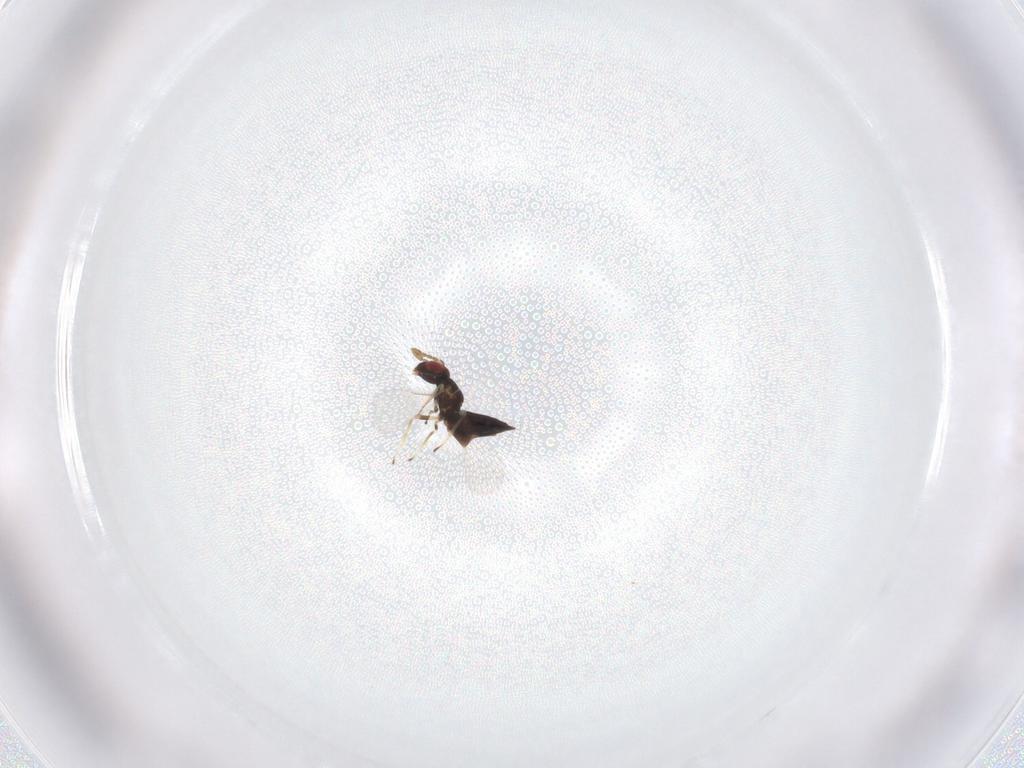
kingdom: Animalia
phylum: Arthropoda
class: Insecta
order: Hymenoptera
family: Eulophidae
